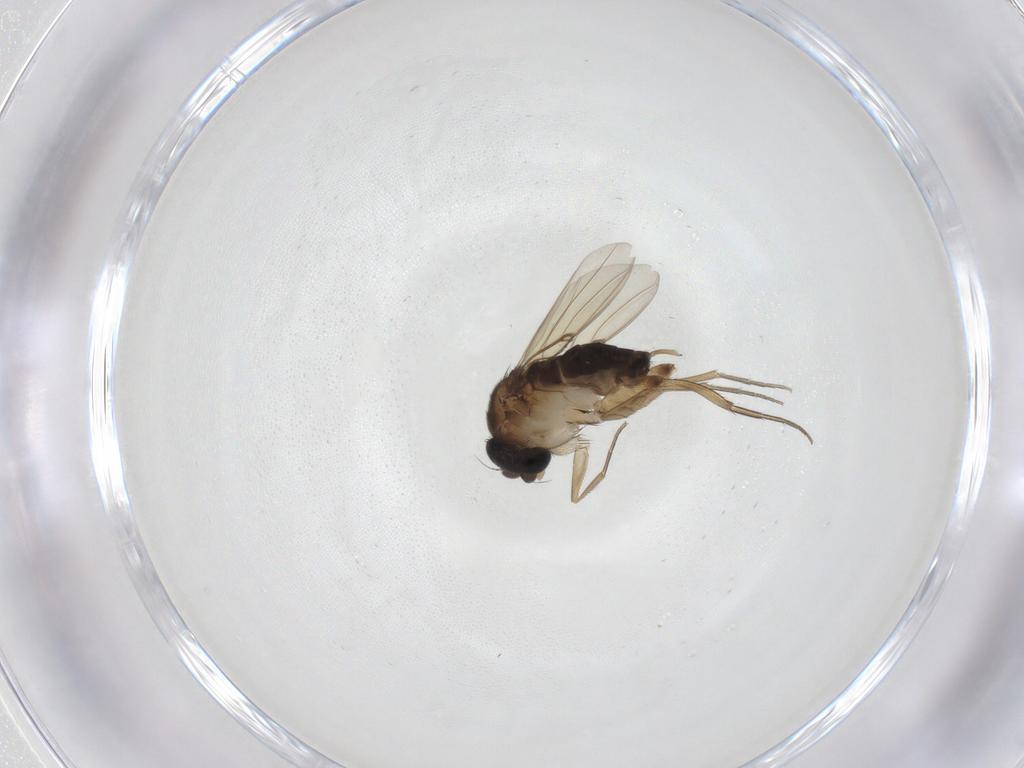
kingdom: Animalia
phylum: Arthropoda
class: Insecta
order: Diptera
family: Phoridae
